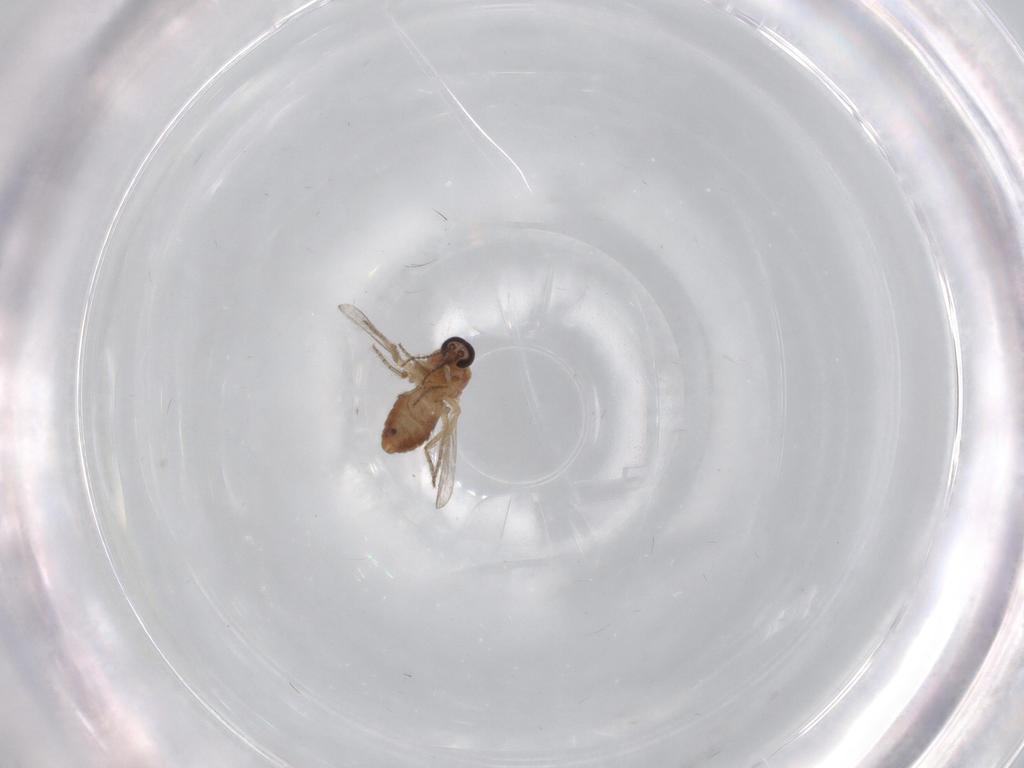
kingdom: Animalia
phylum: Arthropoda
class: Insecta
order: Diptera
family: Ceratopogonidae
